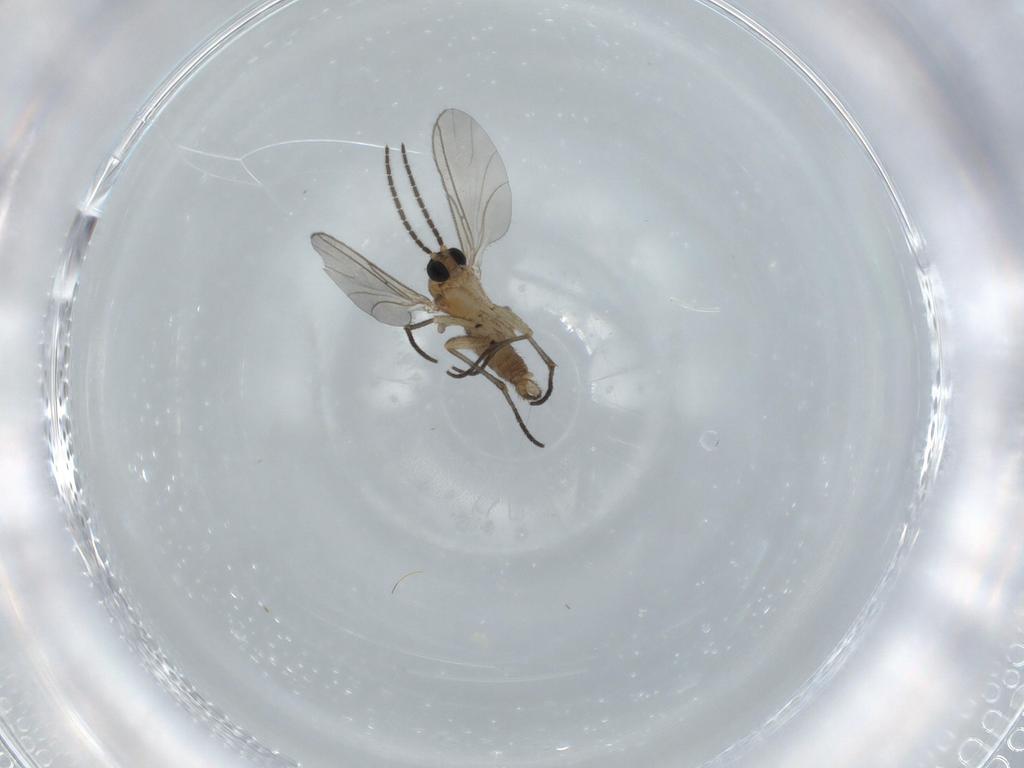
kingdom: Animalia
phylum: Arthropoda
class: Insecta
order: Diptera
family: Sciaridae
